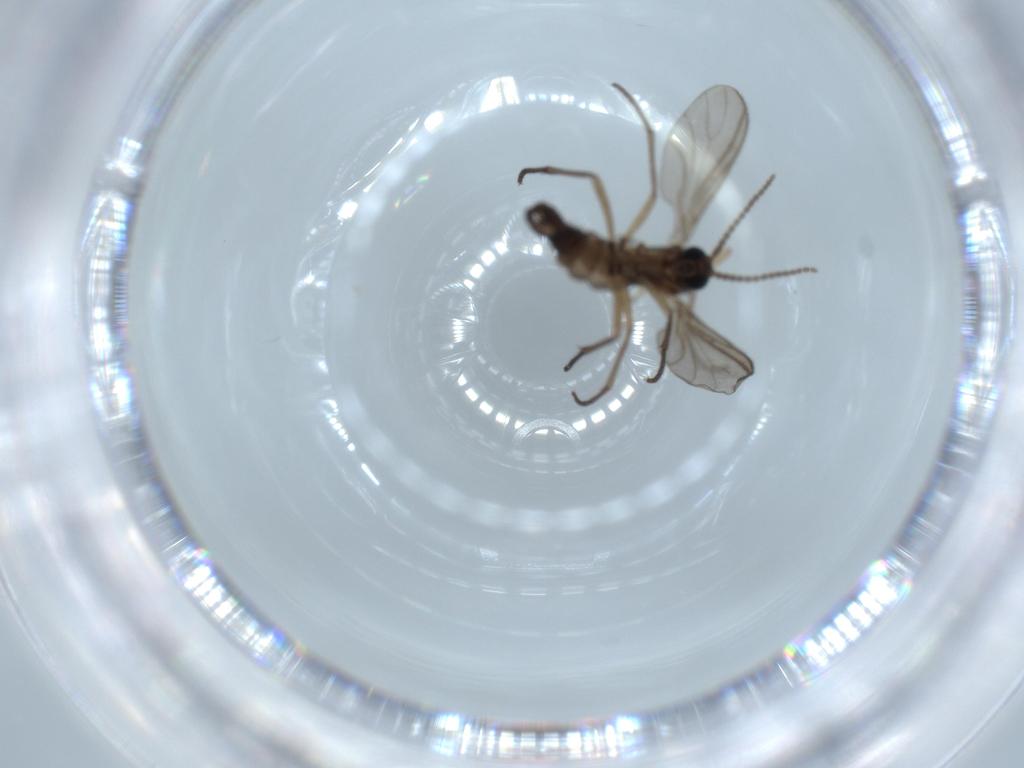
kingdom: Animalia
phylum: Arthropoda
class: Insecta
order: Diptera
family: Sciaridae
